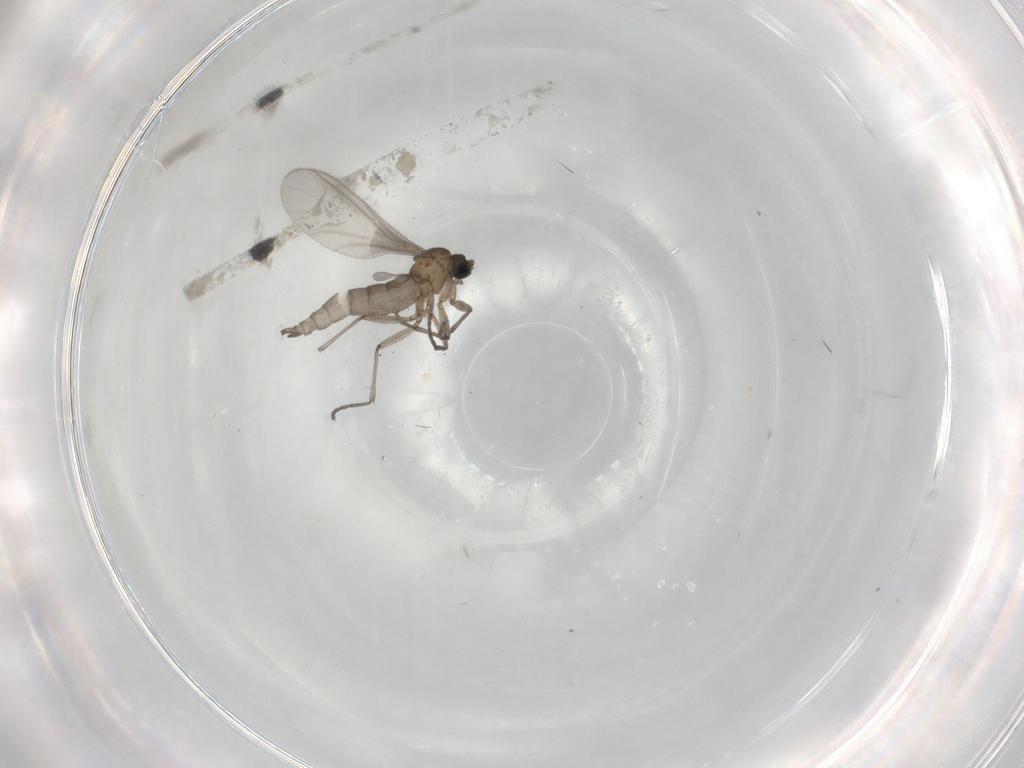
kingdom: Animalia
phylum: Arthropoda
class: Insecta
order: Diptera
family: Sciaridae
